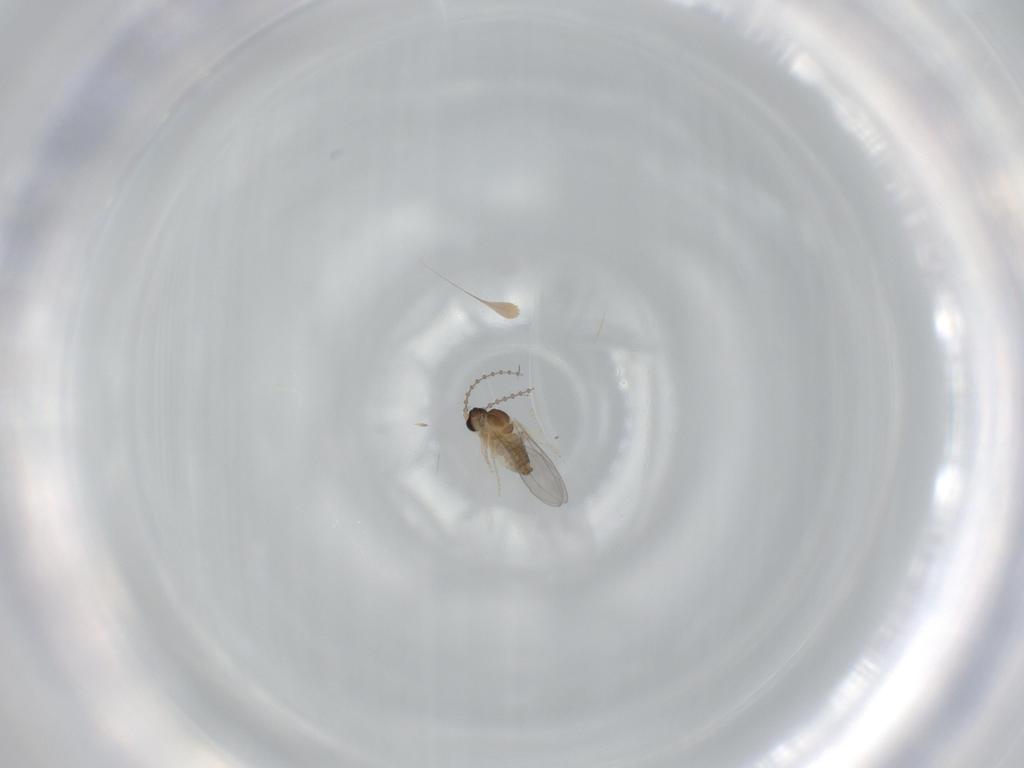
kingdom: Animalia
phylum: Arthropoda
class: Insecta
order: Diptera
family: Cecidomyiidae
